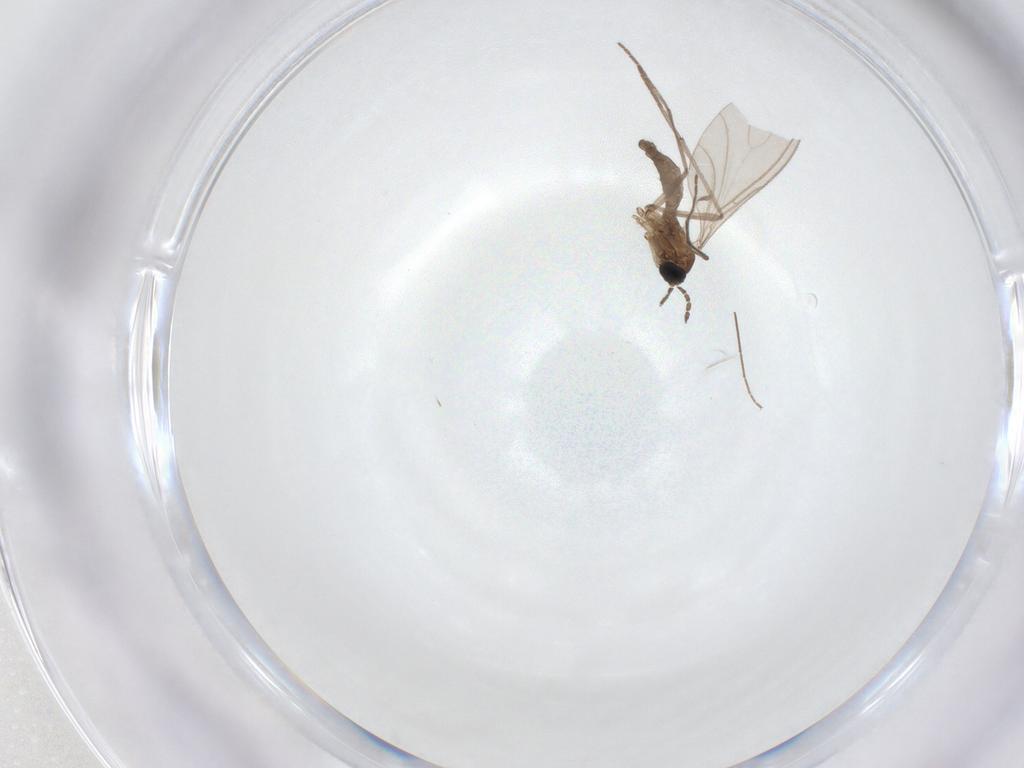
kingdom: Animalia
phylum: Arthropoda
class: Insecta
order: Diptera
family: Sciaridae
